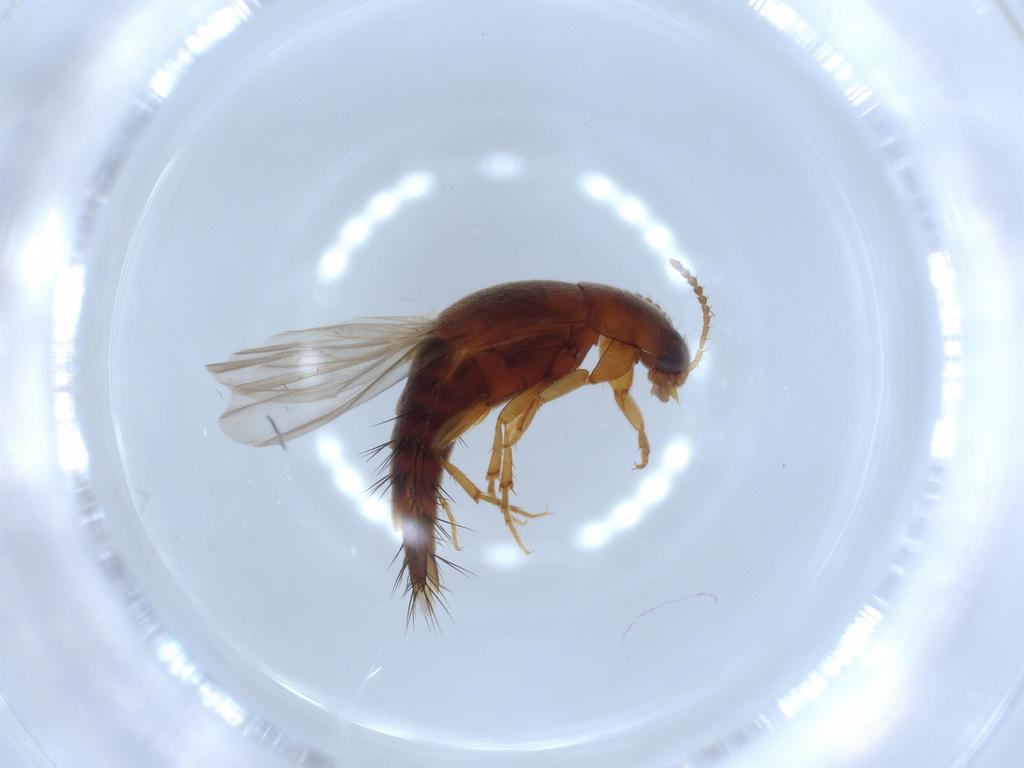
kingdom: Animalia
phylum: Arthropoda
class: Insecta
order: Coleoptera
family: Staphylinidae
